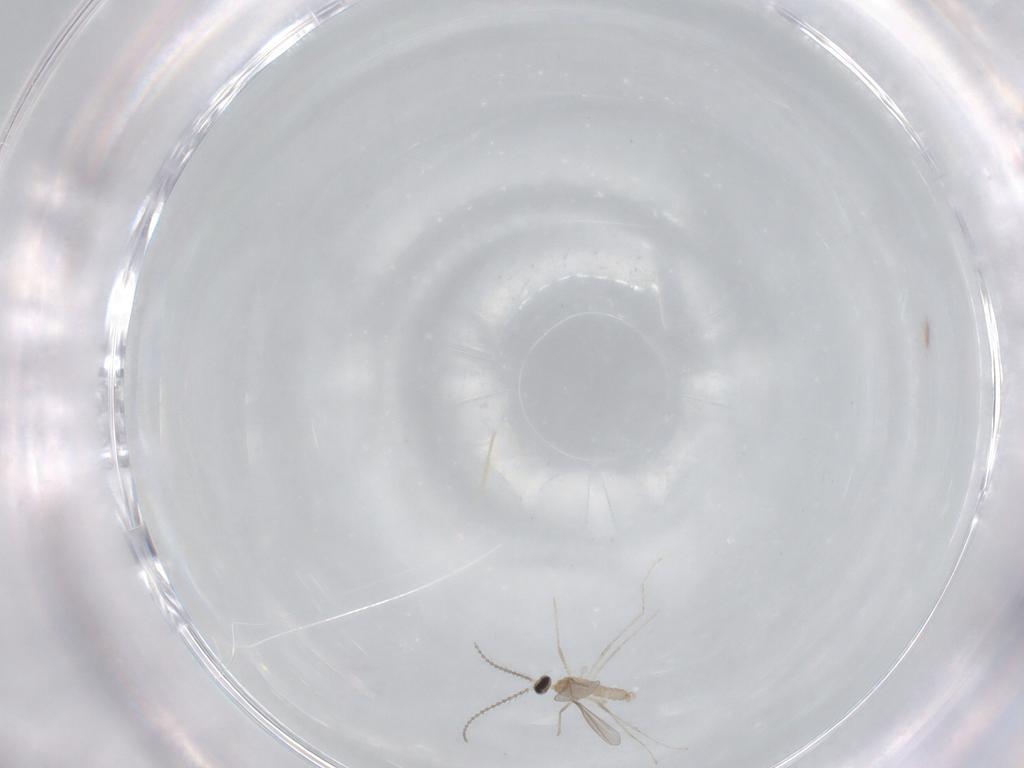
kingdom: Animalia
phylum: Arthropoda
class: Insecta
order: Diptera
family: Cecidomyiidae
